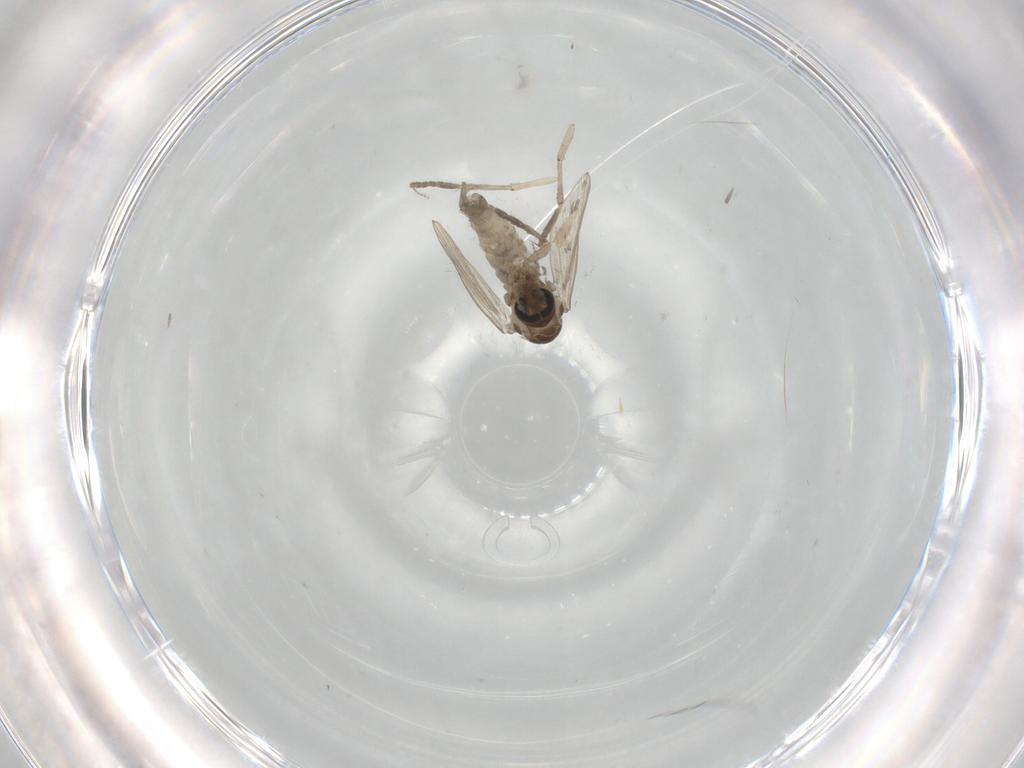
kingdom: Animalia
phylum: Arthropoda
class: Insecta
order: Diptera
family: Psychodidae
